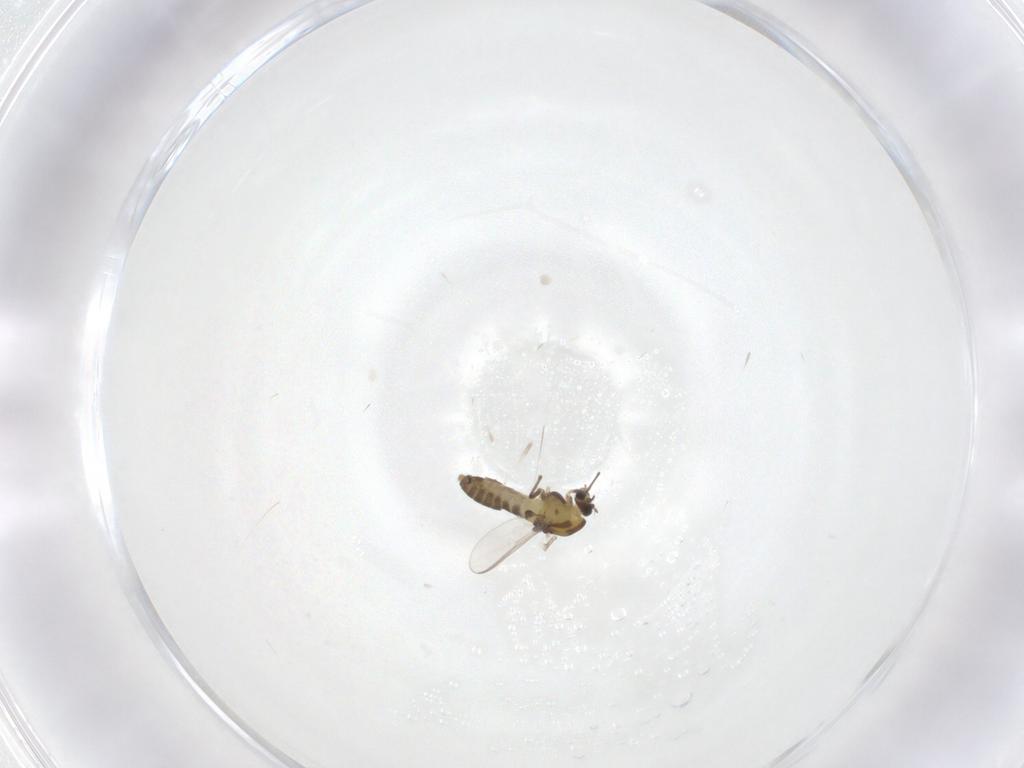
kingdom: Animalia
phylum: Arthropoda
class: Insecta
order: Diptera
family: Chironomidae
